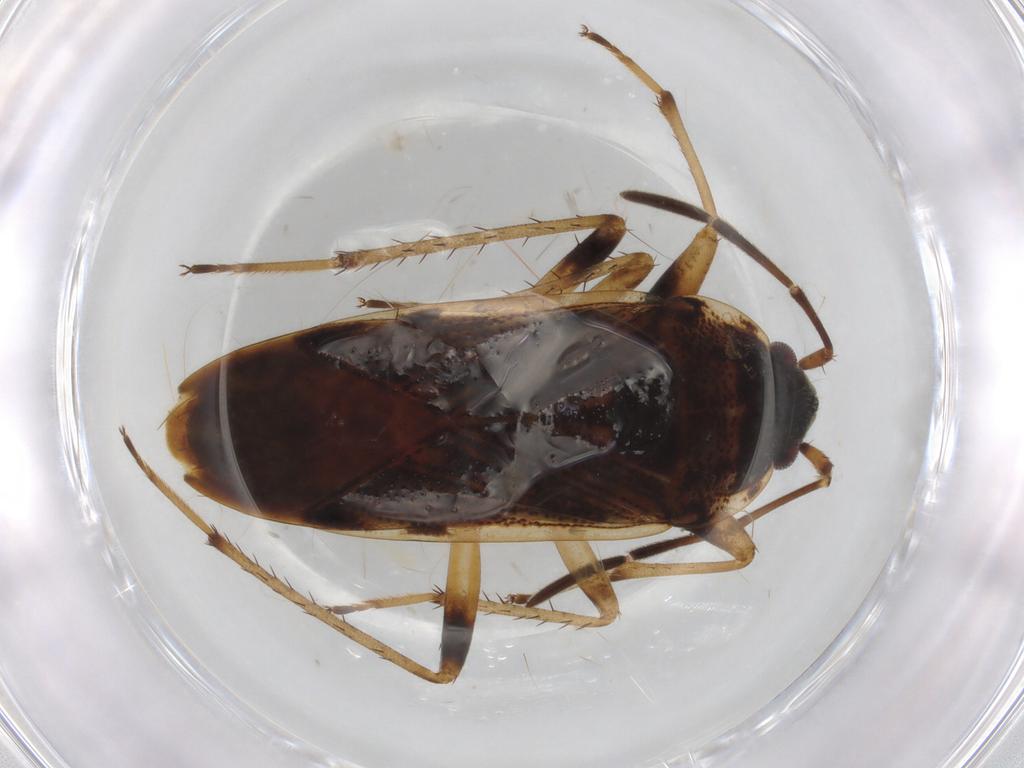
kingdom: Animalia
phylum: Arthropoda
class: Insecta
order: Hemiptera
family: Rhyparochromidae
